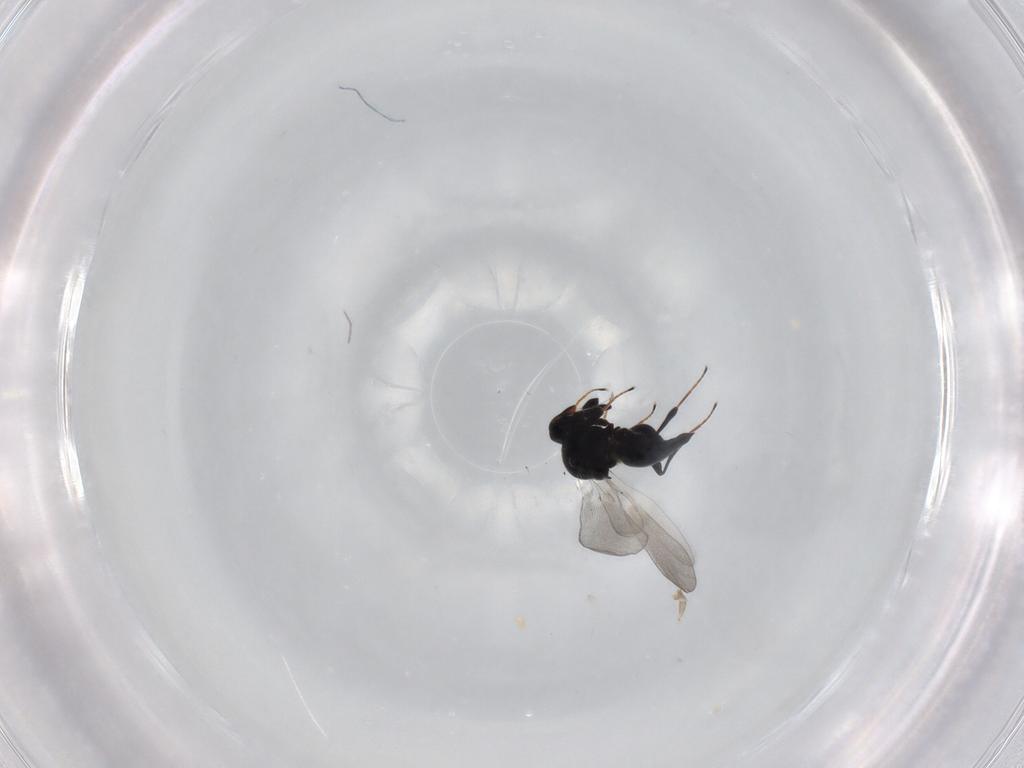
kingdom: Animalia
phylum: Arthropoda
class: Insecta
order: Hymenoptera
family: Platygastridae
